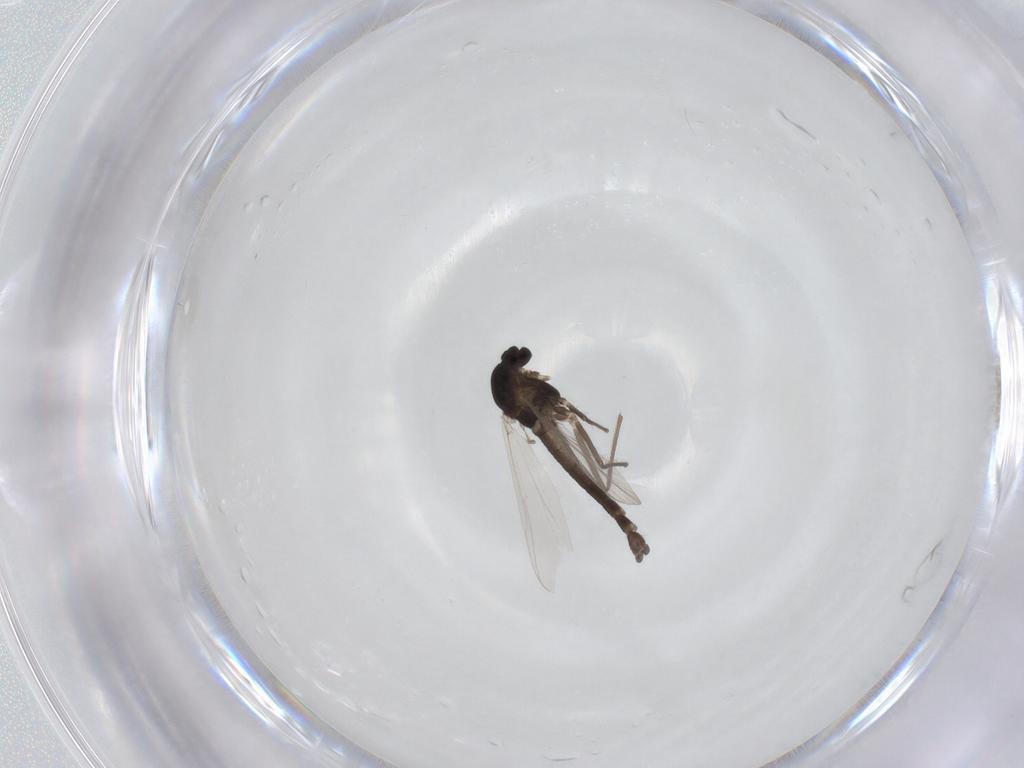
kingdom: Animalia
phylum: Arthropoda
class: Insecta
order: Diptera
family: Chironomidae
